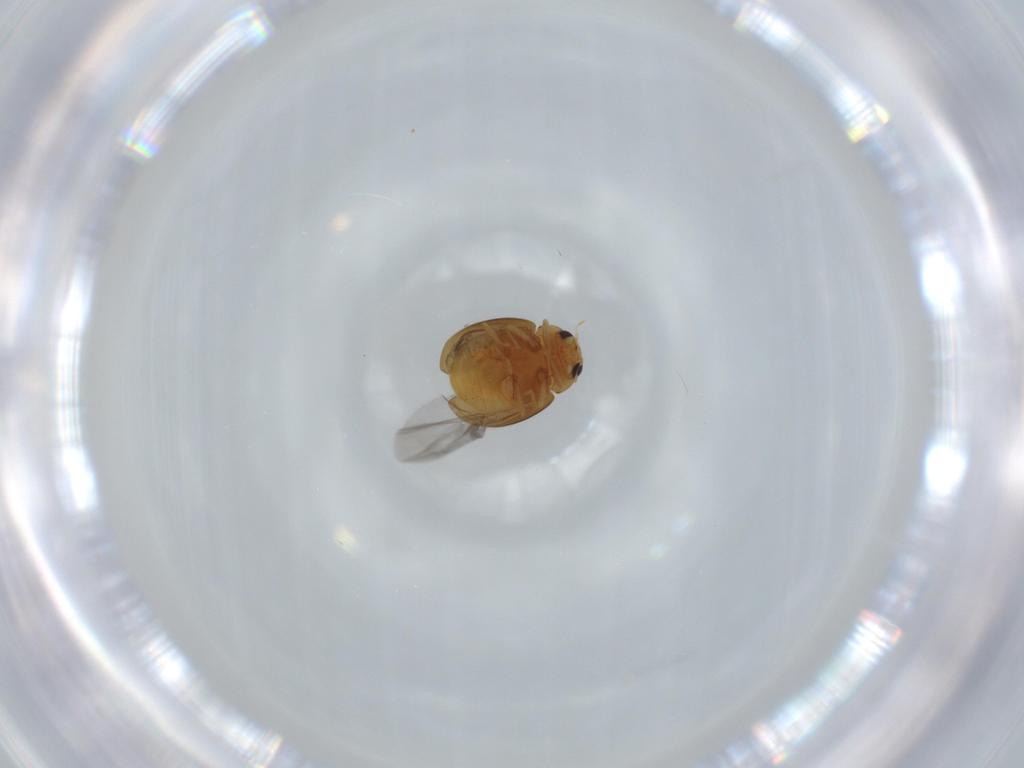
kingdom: Animalia
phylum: Arthropoda
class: Insecta
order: Coleoptera
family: Coccinellidae
